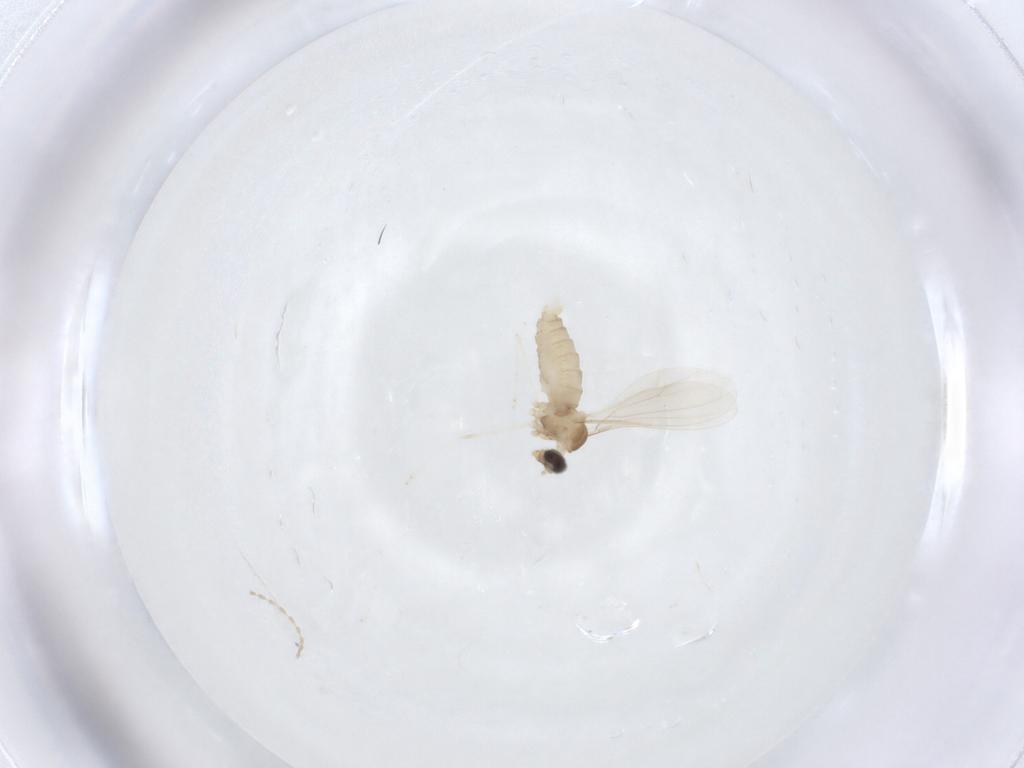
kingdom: Animalia
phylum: Arthropoda
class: Insecta
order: Diptera
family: Cecidomyiidae
